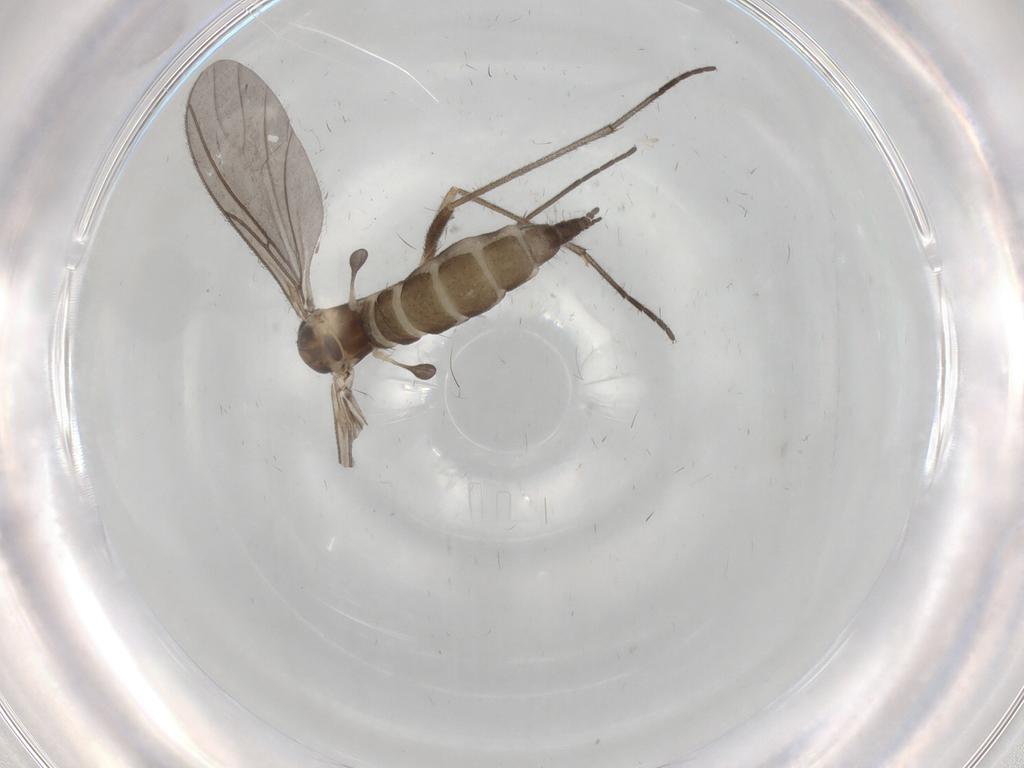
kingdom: Animalia
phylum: Arthropoda
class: Insecta
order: Diptera
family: Sciaridae
